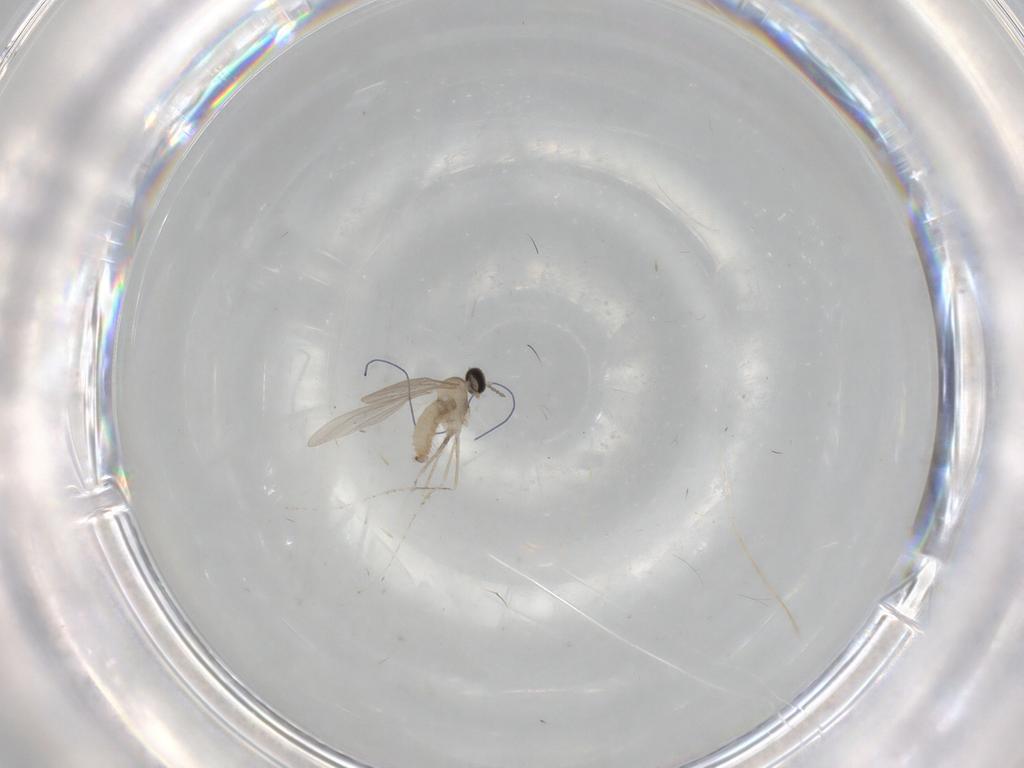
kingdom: Animalia
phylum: Arthropoda
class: Insecta
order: Diptera
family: Cecidomyiidae
